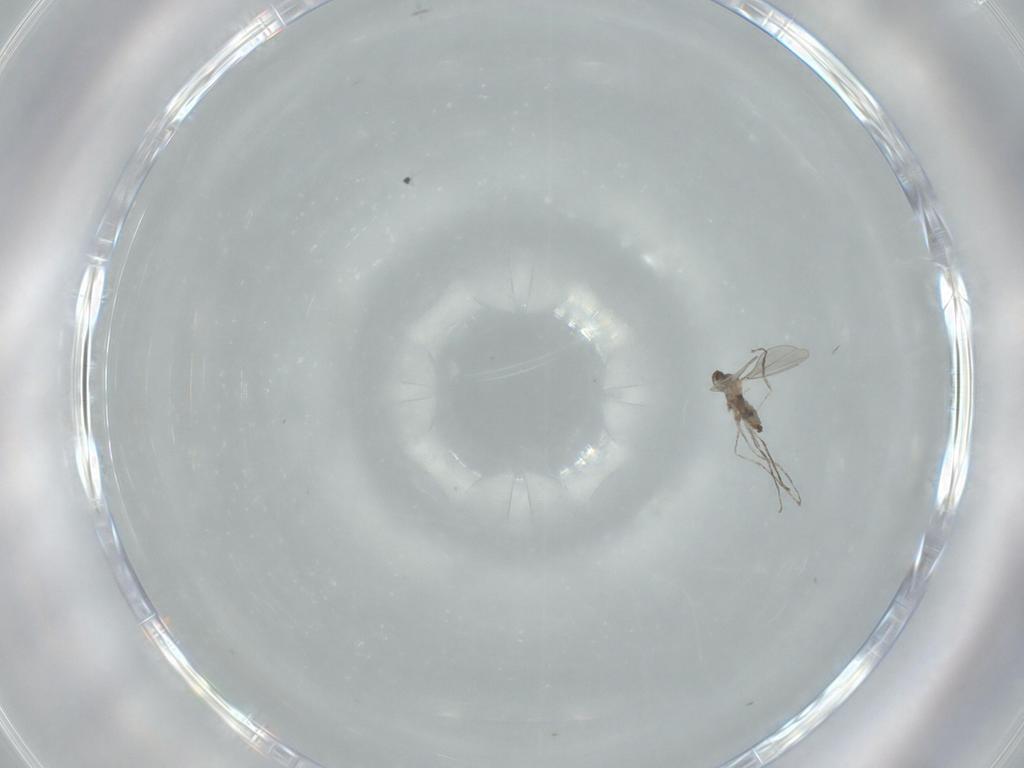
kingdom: Animalia
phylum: Arthropoda
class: Insecta
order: Diptera
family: Cecidomyiidae
